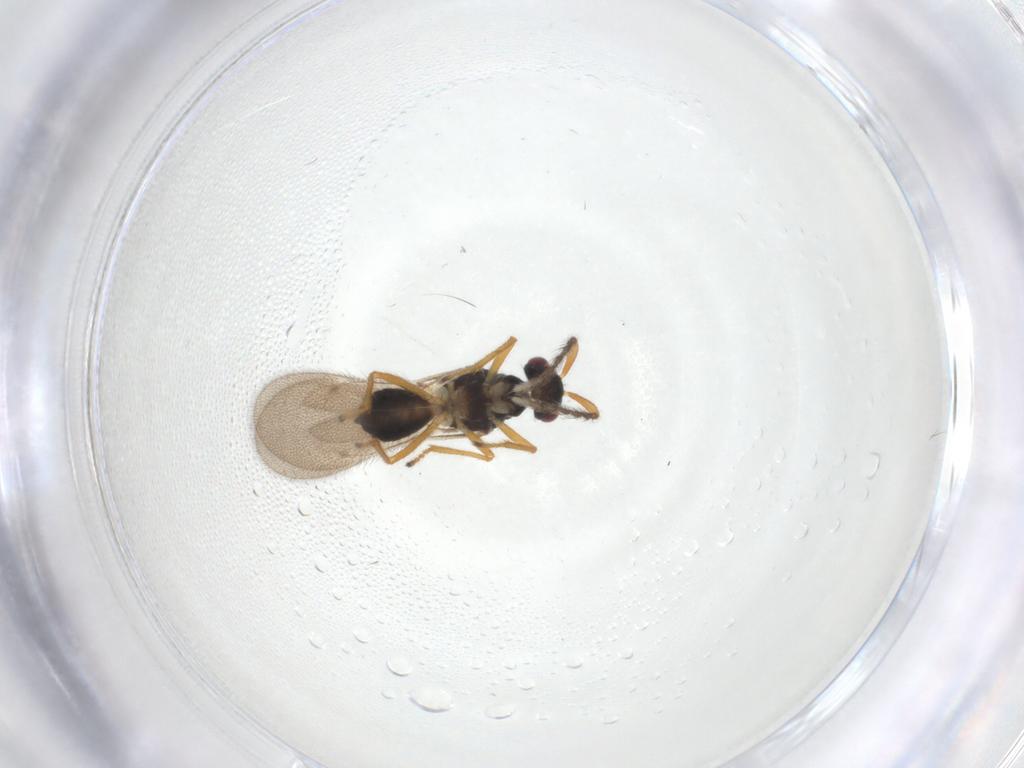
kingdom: Animalia
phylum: Arthropoda
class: Insecta
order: Hymenoptera
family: Eulophidae
